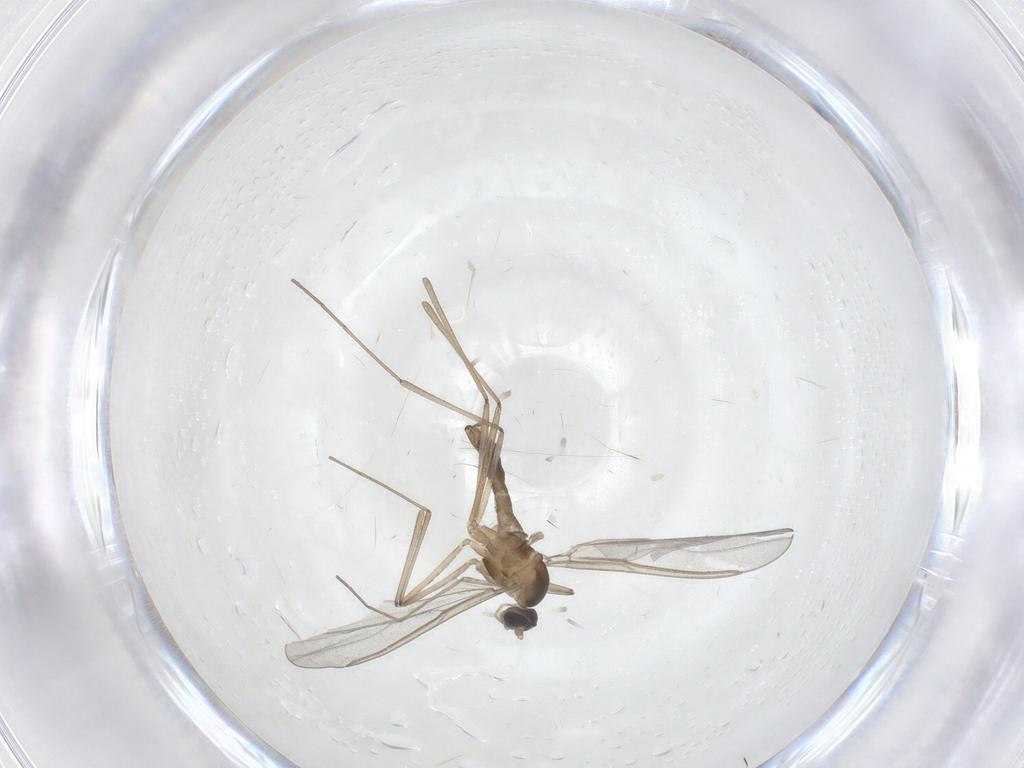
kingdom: Animalia
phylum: Arthropoda
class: Insecta
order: Diptera
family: Cecidomyiidae
